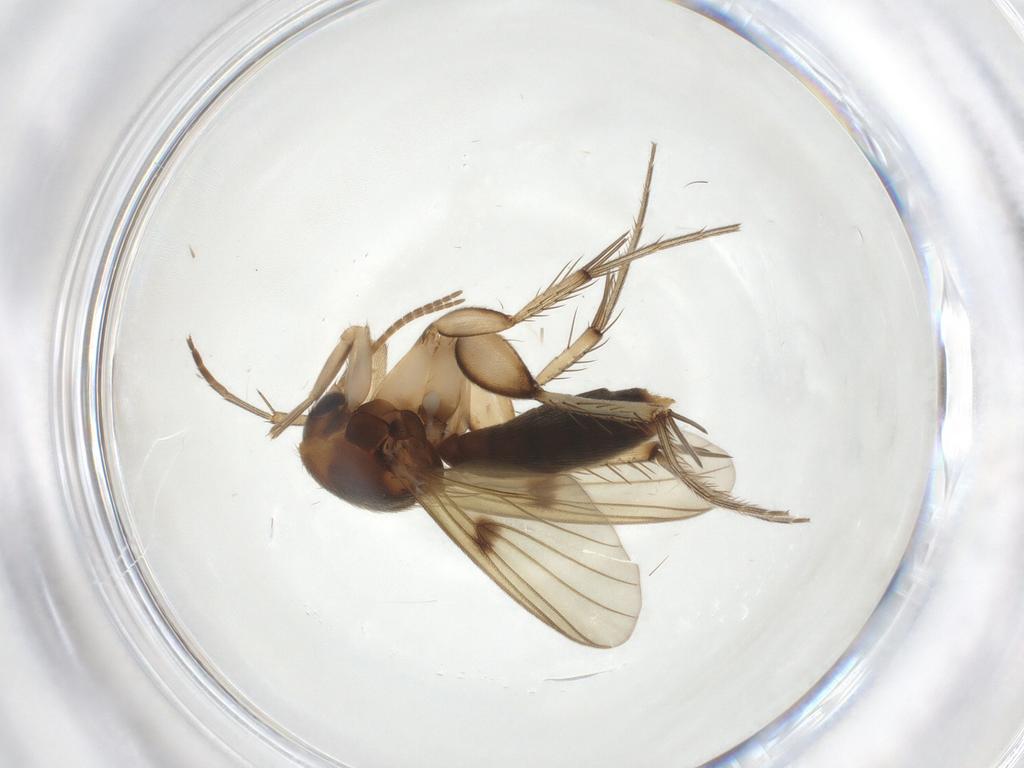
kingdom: Animalia
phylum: Arthropoda
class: Insecta
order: Diptera
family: Mycetophilidae
